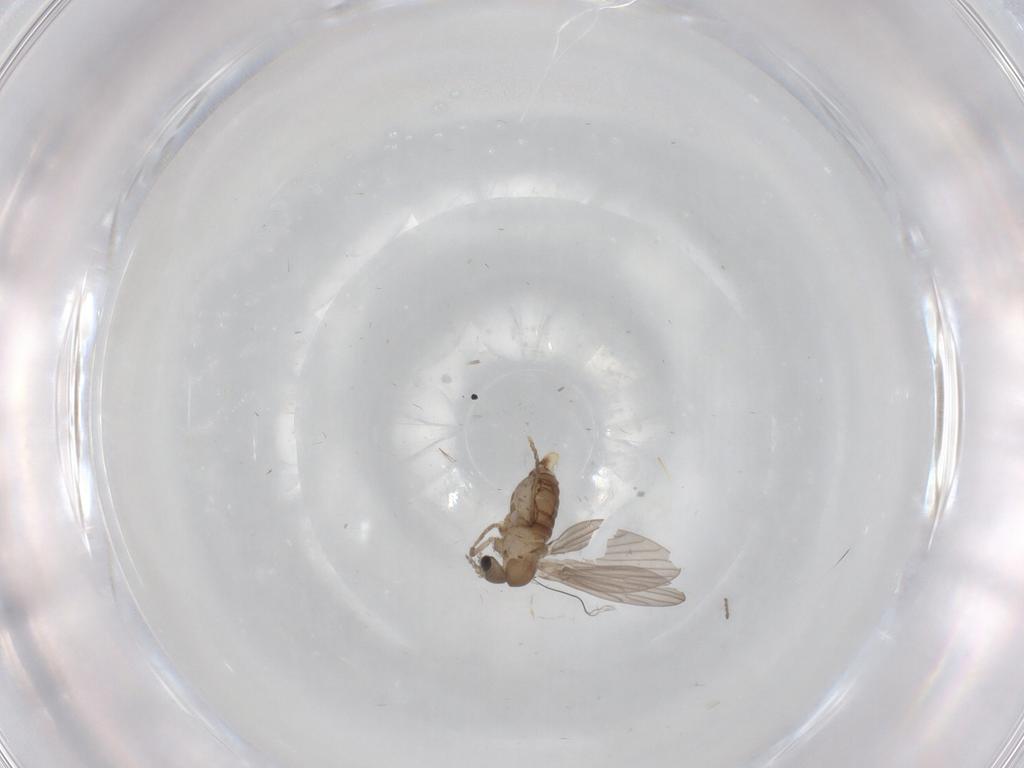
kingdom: Animalia
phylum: Arthropoda
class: Insecta
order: Diptera
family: Ceratopogonidae
